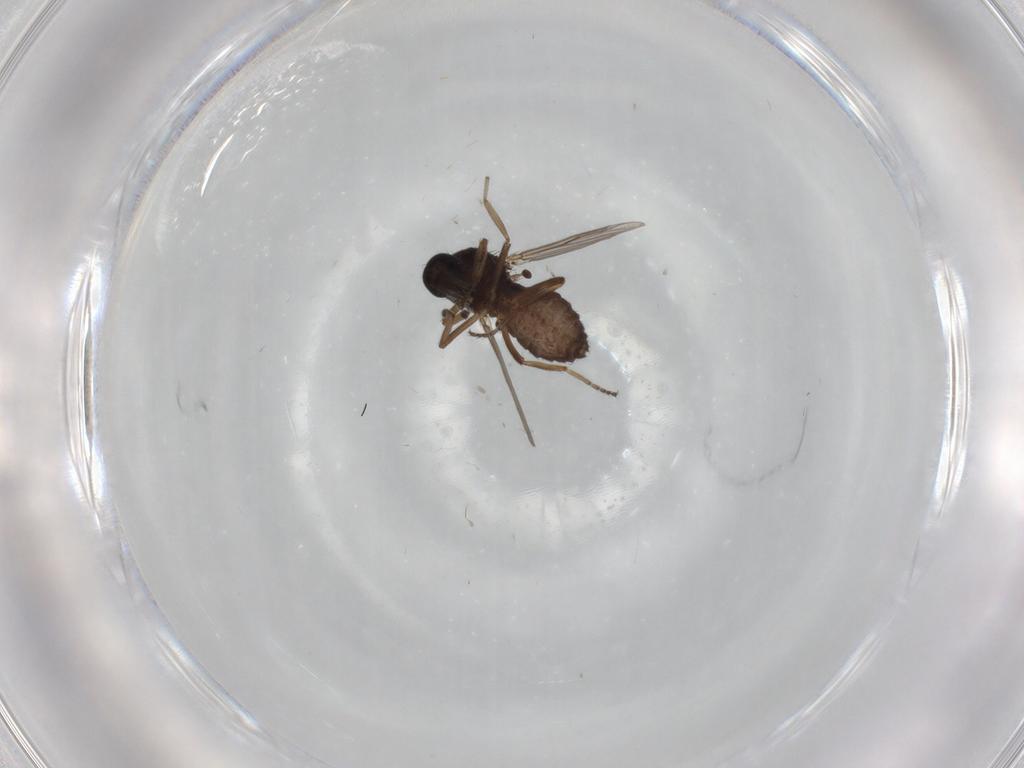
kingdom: Animalia
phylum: Arthropoda
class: Insecta
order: Diptera
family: Ceratopogonidae
